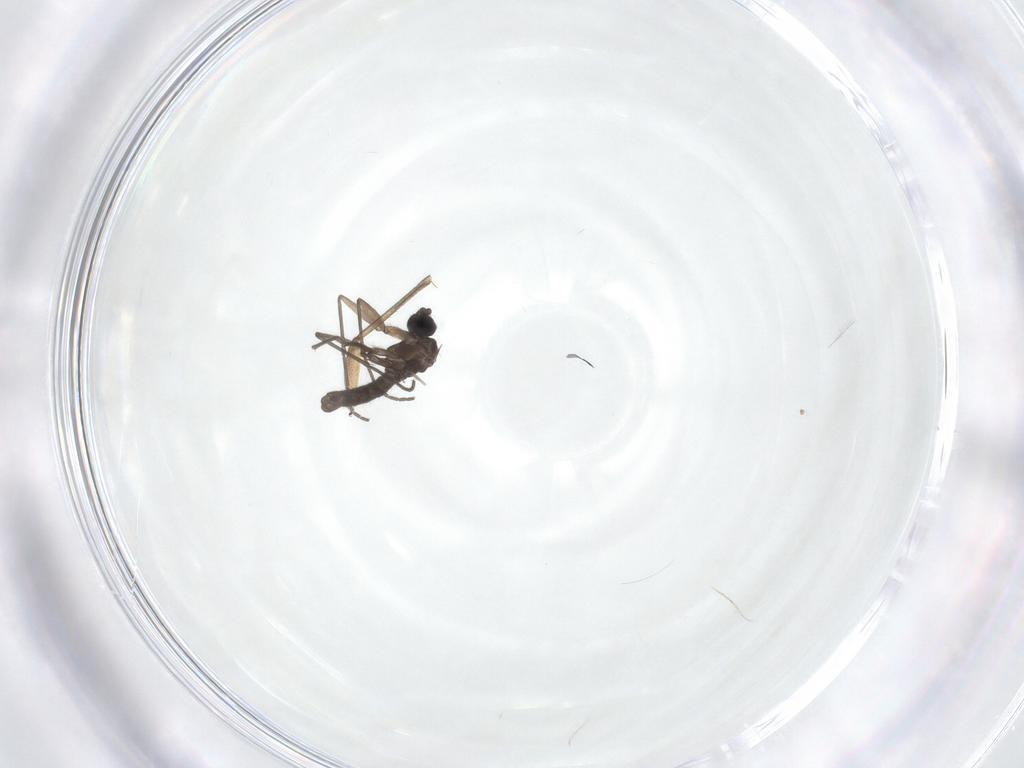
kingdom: Animalia
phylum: Arthropoda
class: Insecta
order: Diptera
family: Sciaridae
